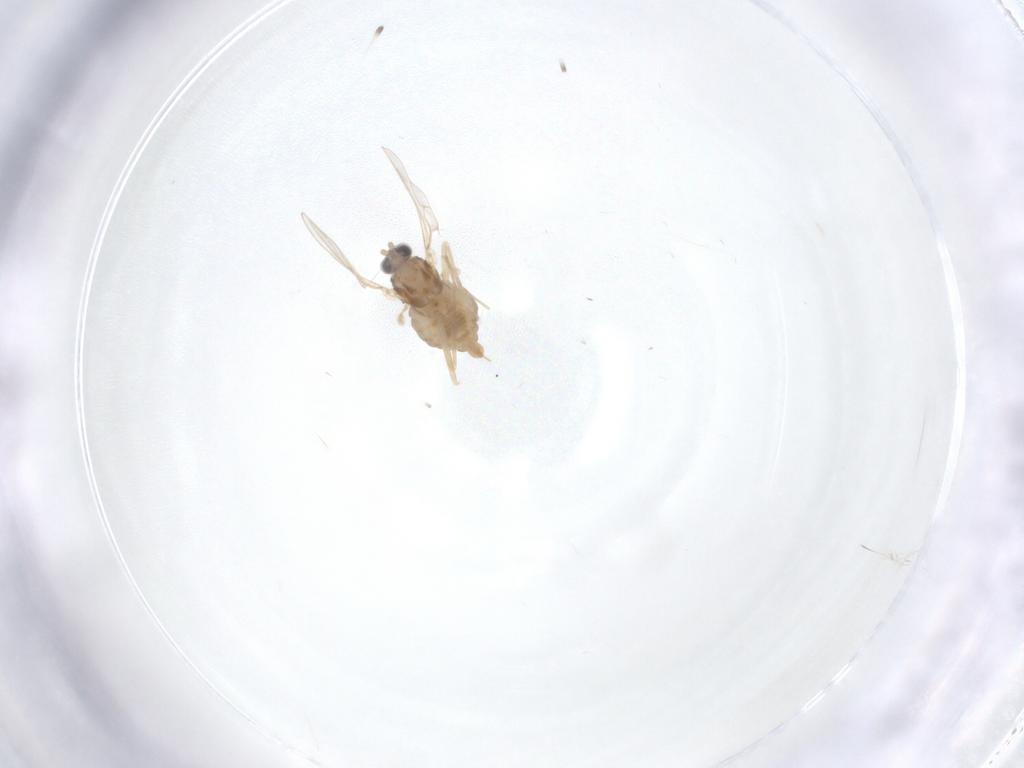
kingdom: Animalia
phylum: Arthropoda
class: Insecta
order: Diptera
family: Cecidomyiidae
